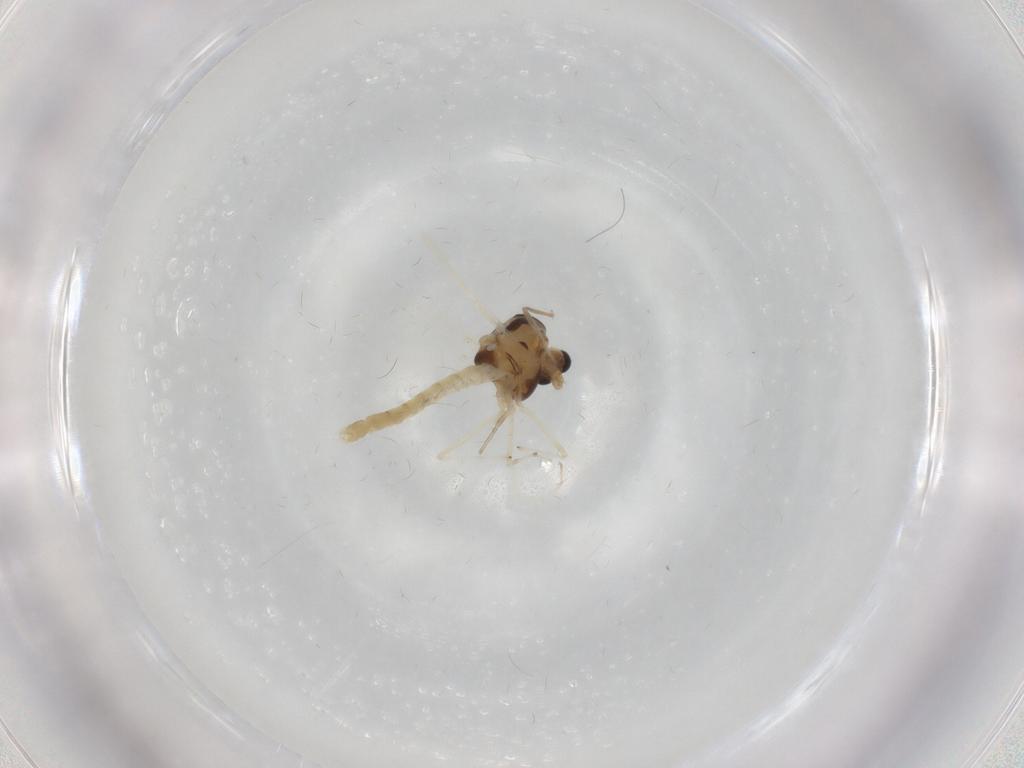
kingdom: Animalia
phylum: Arthropoda
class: Insecta
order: Diptera
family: Chironomidae
